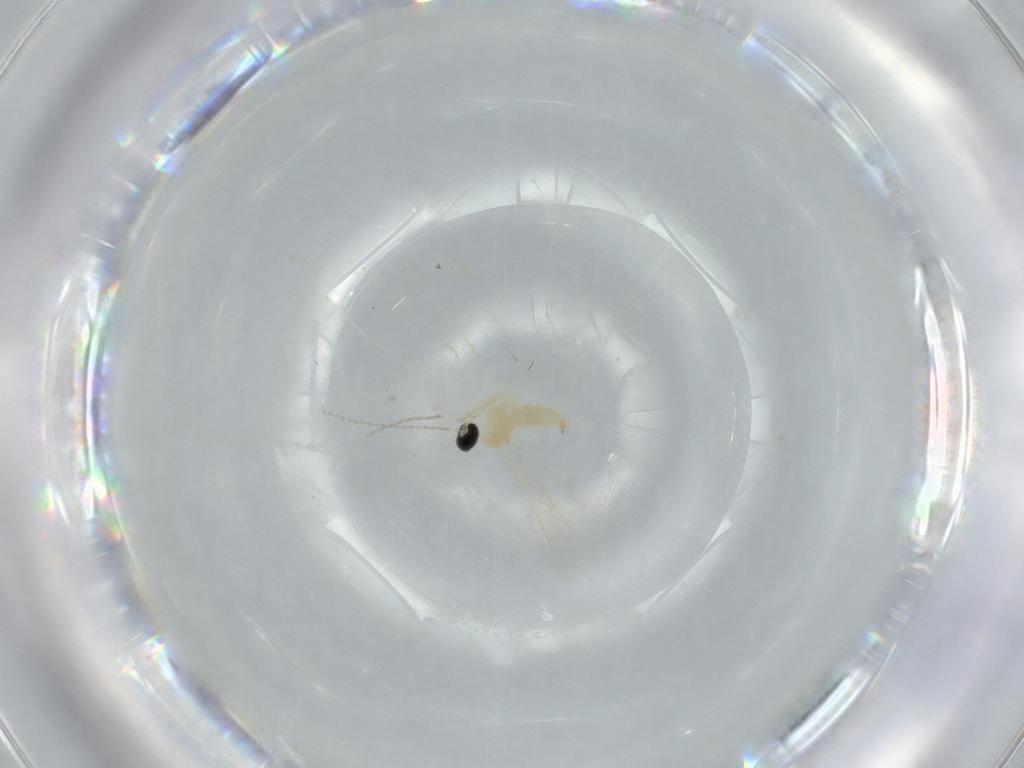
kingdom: Animalia
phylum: Arthropoda
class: Insecta
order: Diptera
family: Cecidomyiidae
